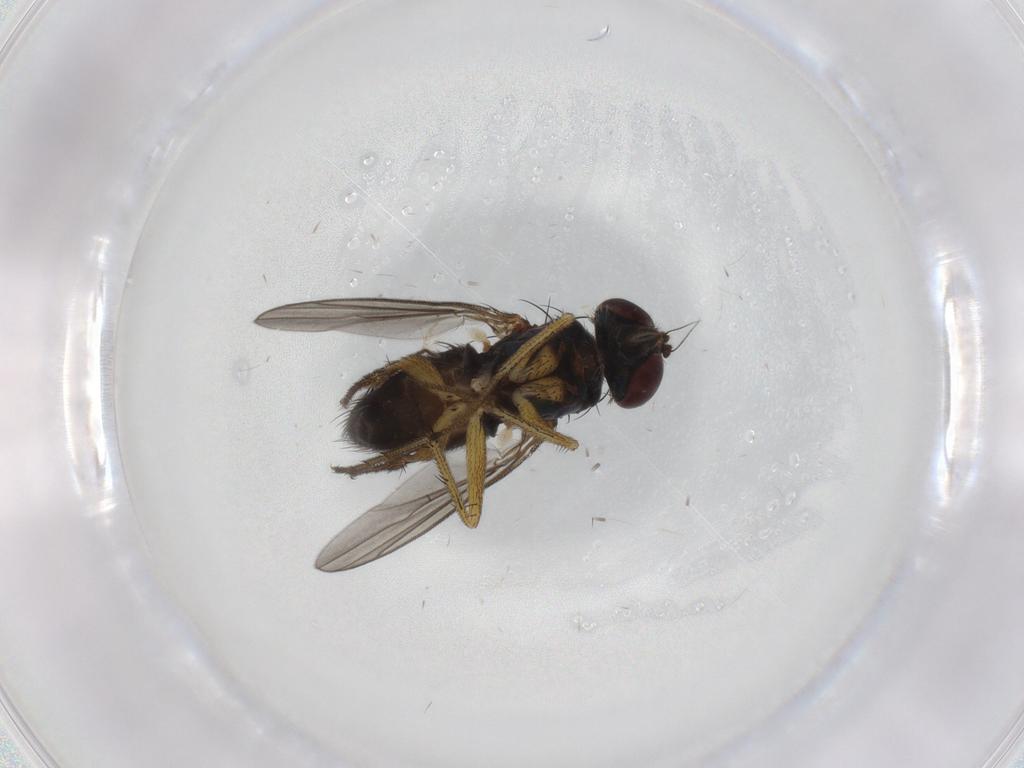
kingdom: Animalia
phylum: Arthropoda
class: Insecta
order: Diptera
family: Dolichopodidae
